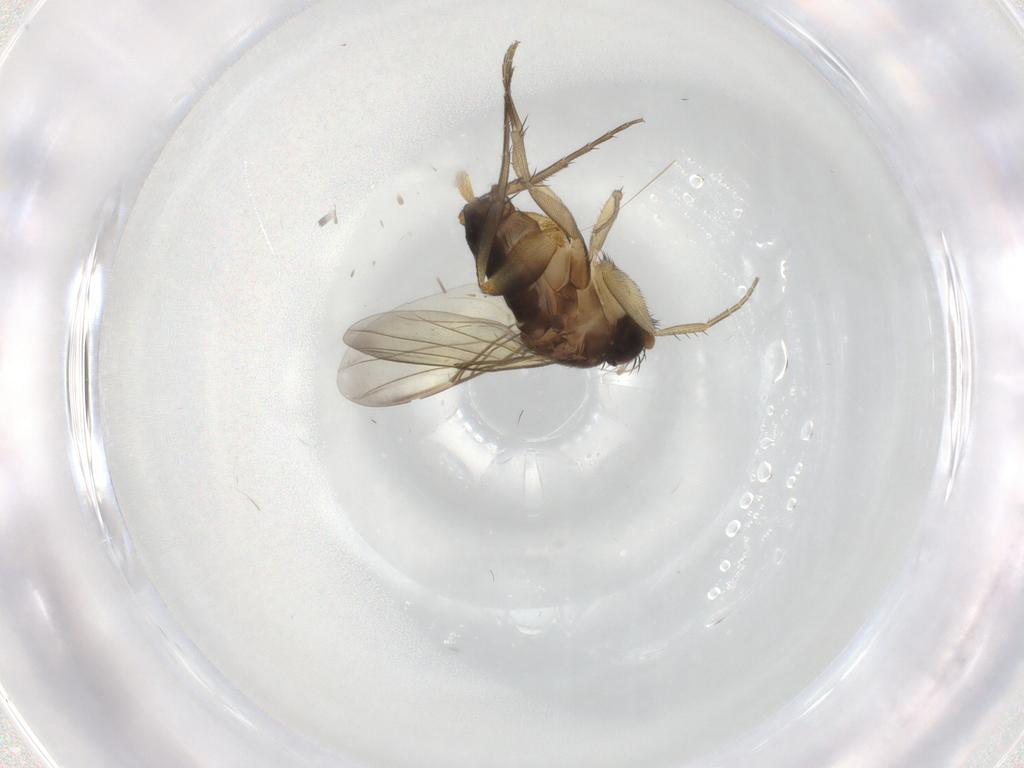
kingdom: Animalia
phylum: Arthropoda
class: Insecta
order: Diptera
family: Phoridae
